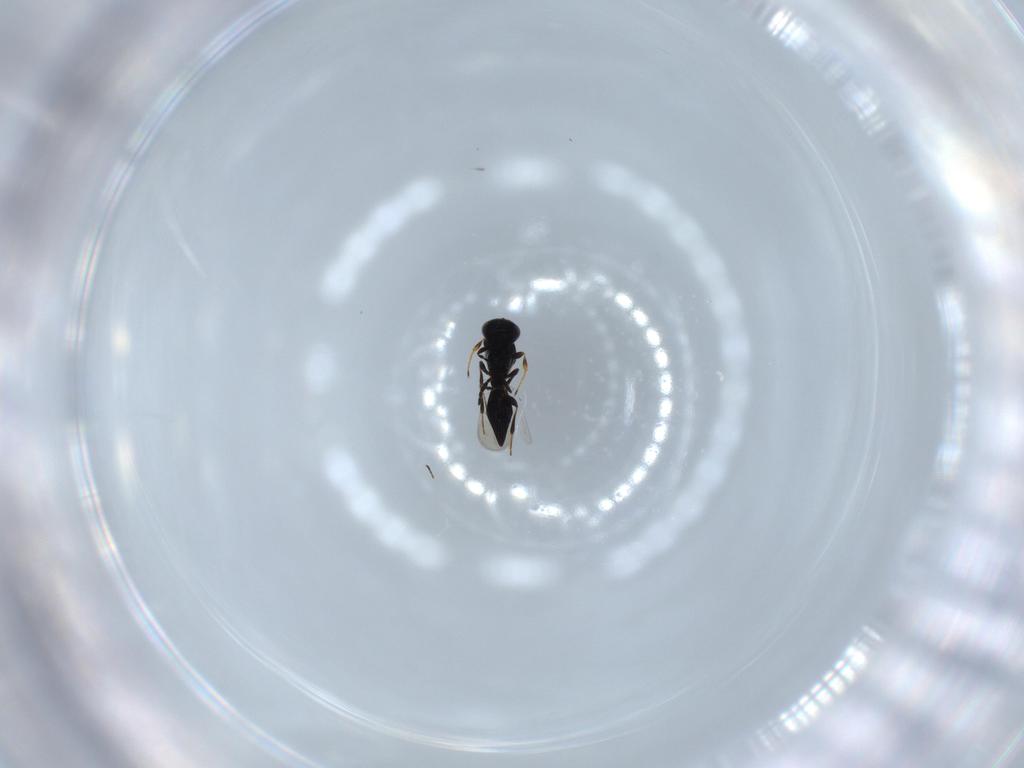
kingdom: Animalia
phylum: Arthropoda
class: Insecta
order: Diptera
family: Mythicomyiidae
